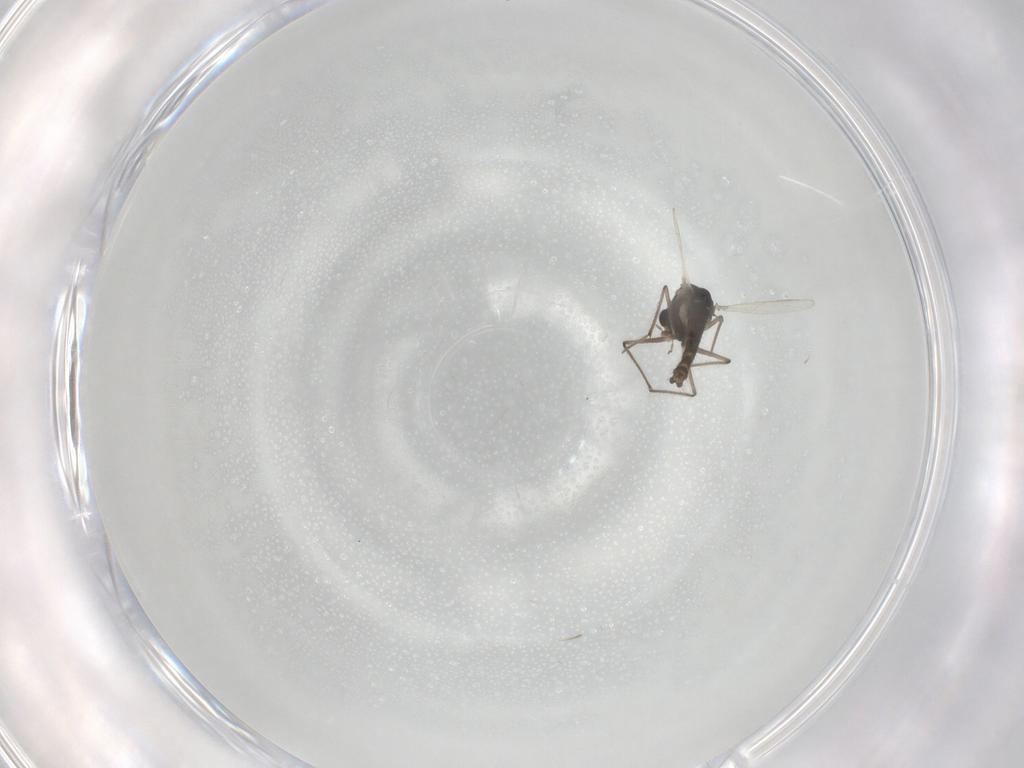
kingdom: Animalia
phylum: Arthropoda
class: Insecta
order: Diptera
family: Chironomidae
